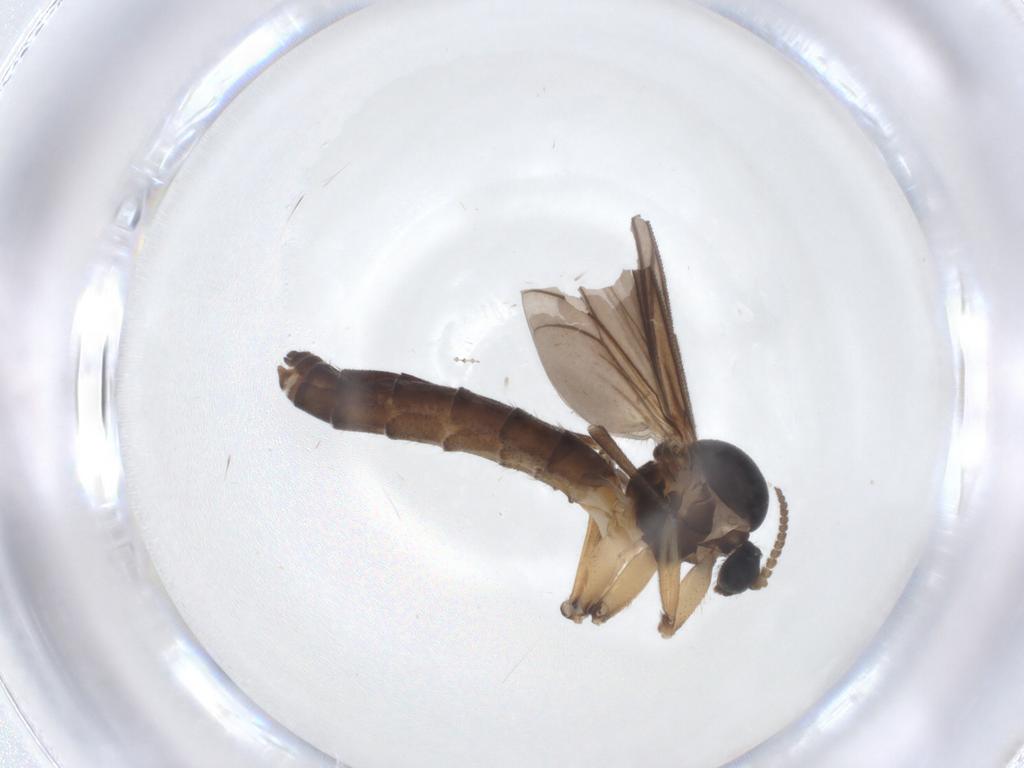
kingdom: Animalia
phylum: Arthropoda
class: Insecta
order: Diptera
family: Mycetophilidae
